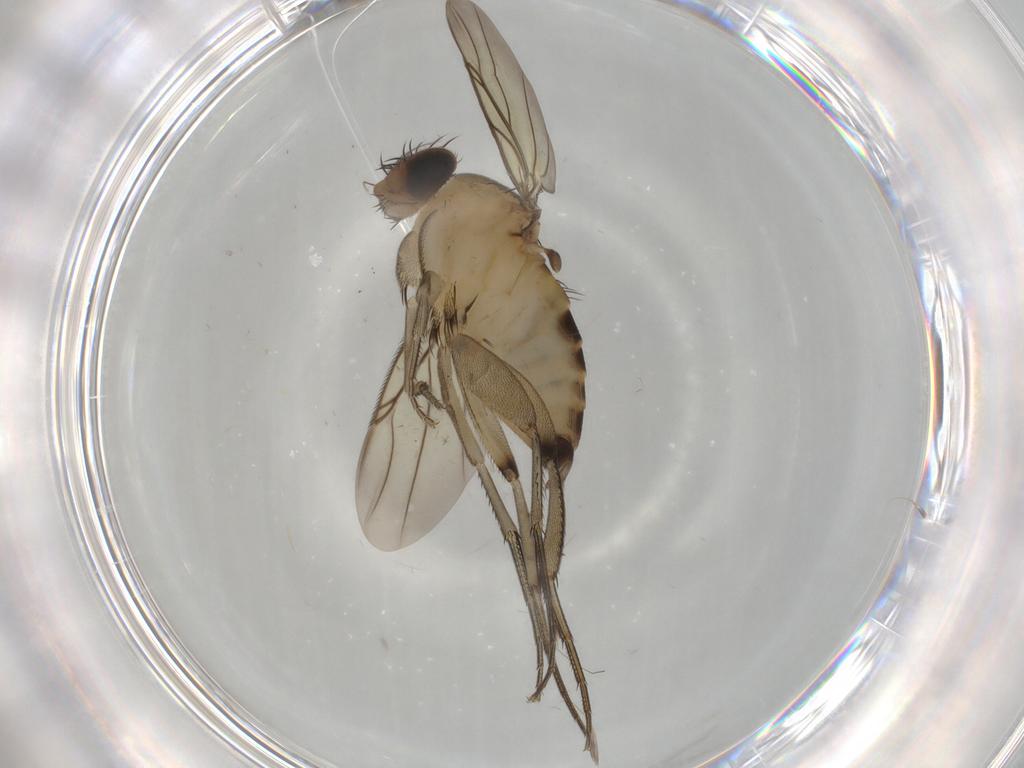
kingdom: Animalia
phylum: Arthropoda
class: Insecta
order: Diptera
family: Phoridae
